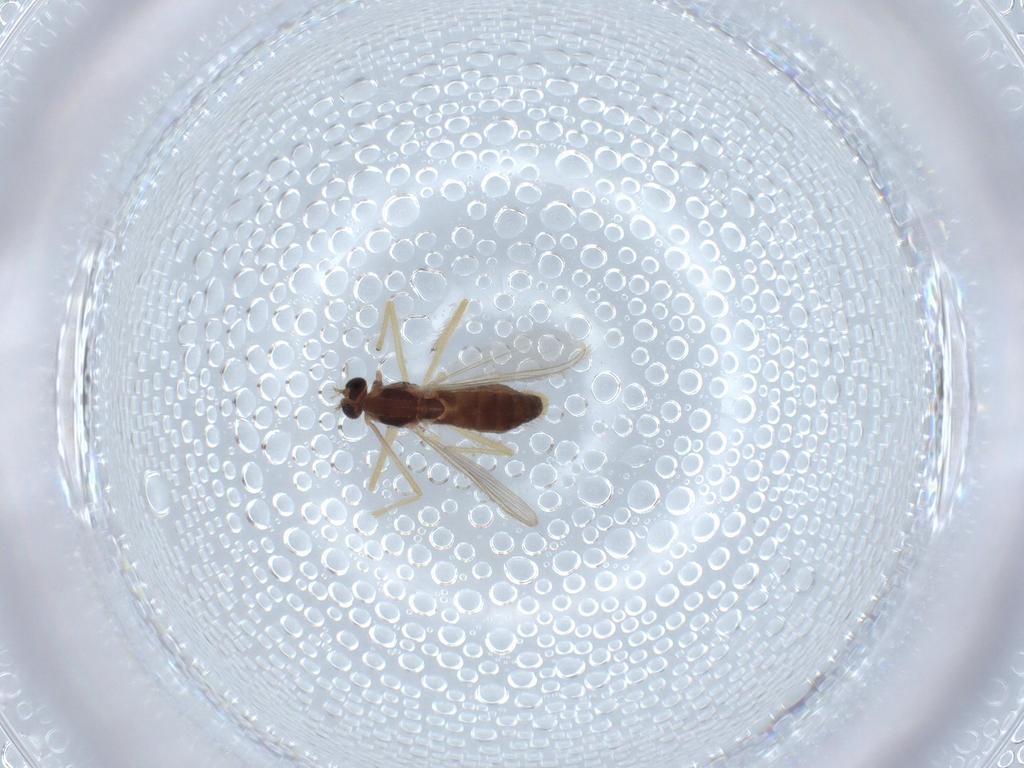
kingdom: Animalia
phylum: Arthropoda
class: Insecta
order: Diptera
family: Chironomidae
